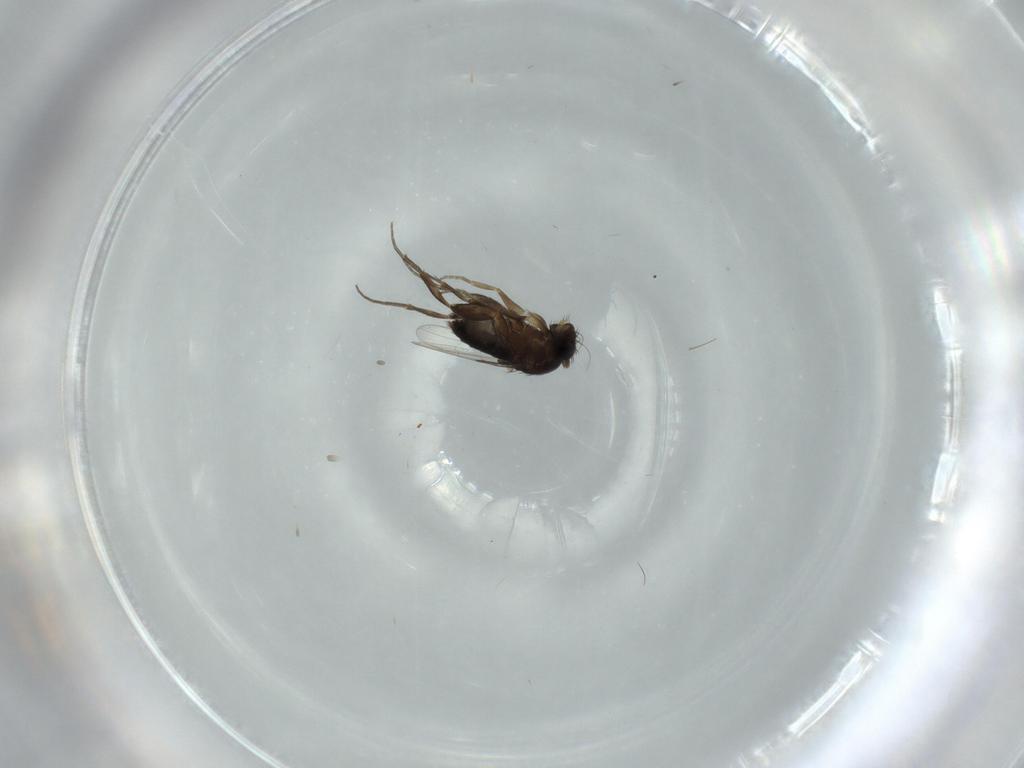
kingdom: Animalia
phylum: Arthropoda
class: Insecta
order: Diptera
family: Phoridae
